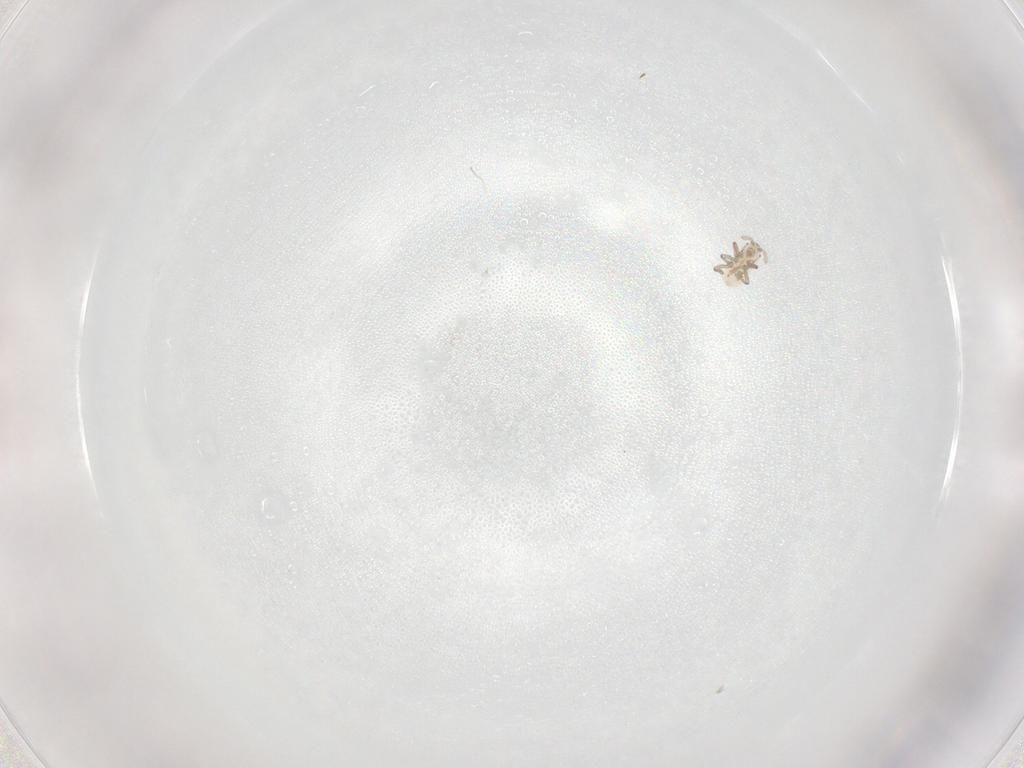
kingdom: Animalia
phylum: Arthropoda
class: Insecta
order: Hemiptera
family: Aphididae
